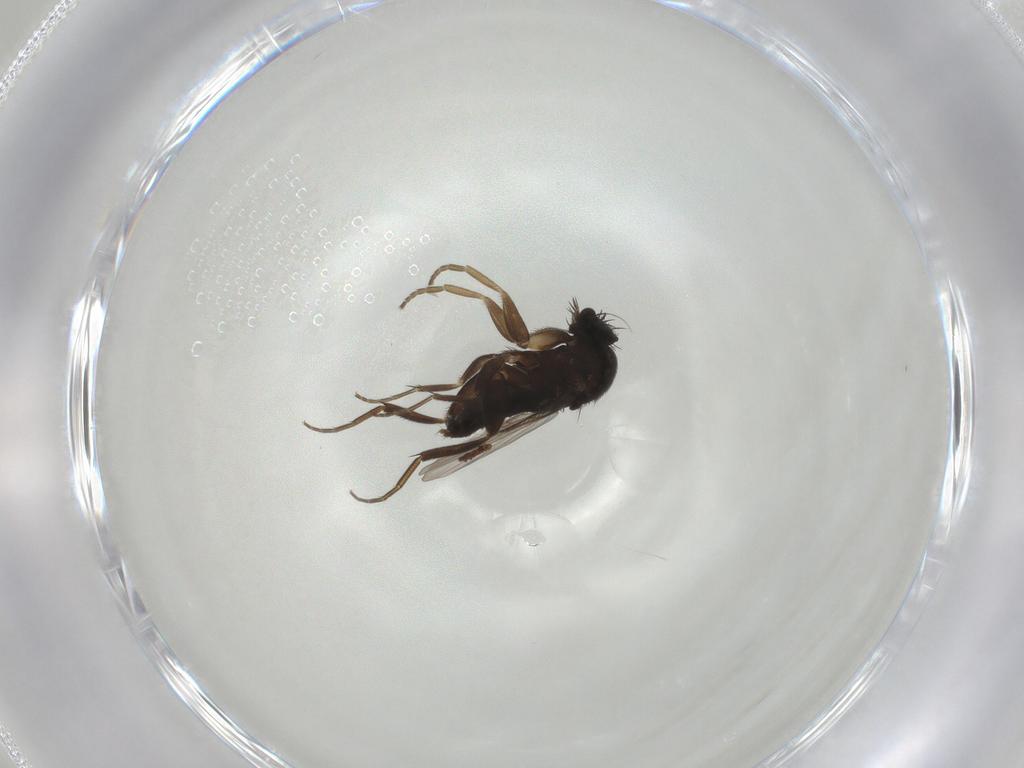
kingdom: Animalia
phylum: Arthropoda
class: Insecta
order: Diptera
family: Phoridae
